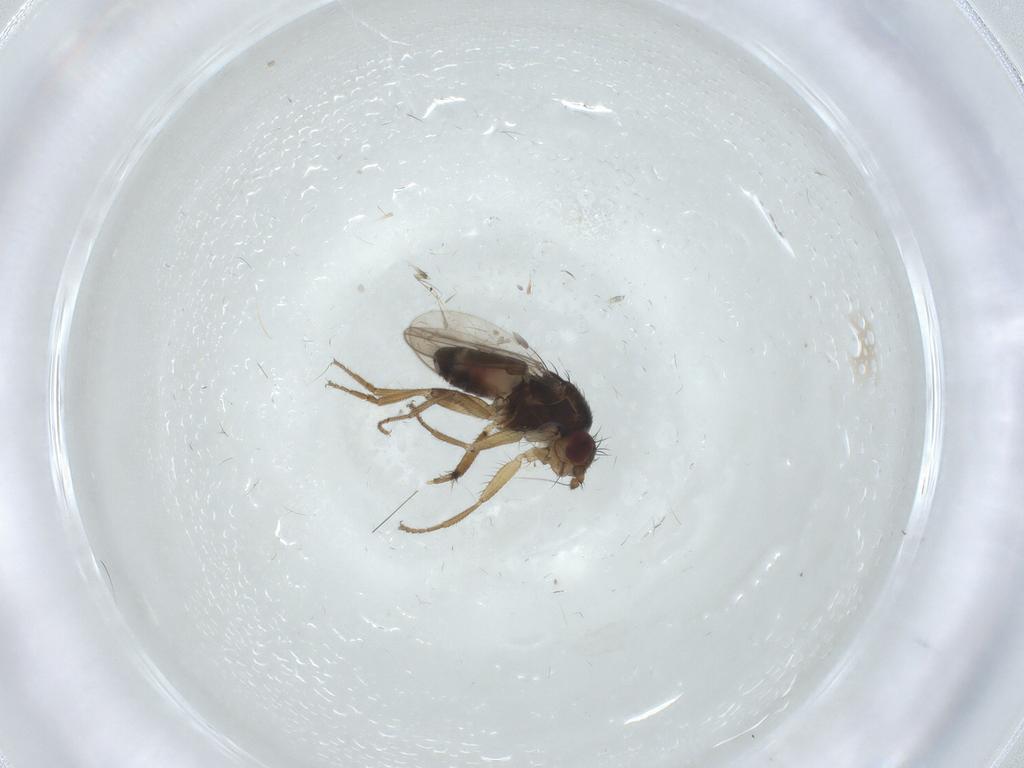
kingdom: Animalia
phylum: Arthropoda
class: Insecta
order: Diptera
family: Sphaeroceridae
